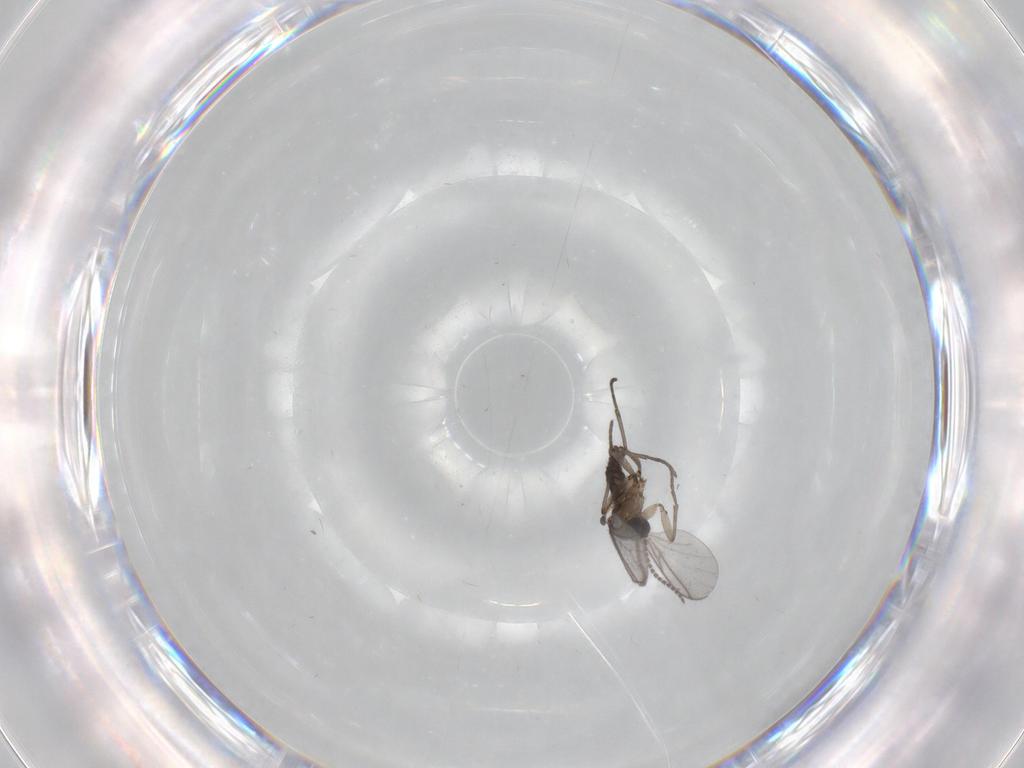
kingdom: Animalia
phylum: Arthropoda
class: Insecta
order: Diptera
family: Cecidomyiidae
